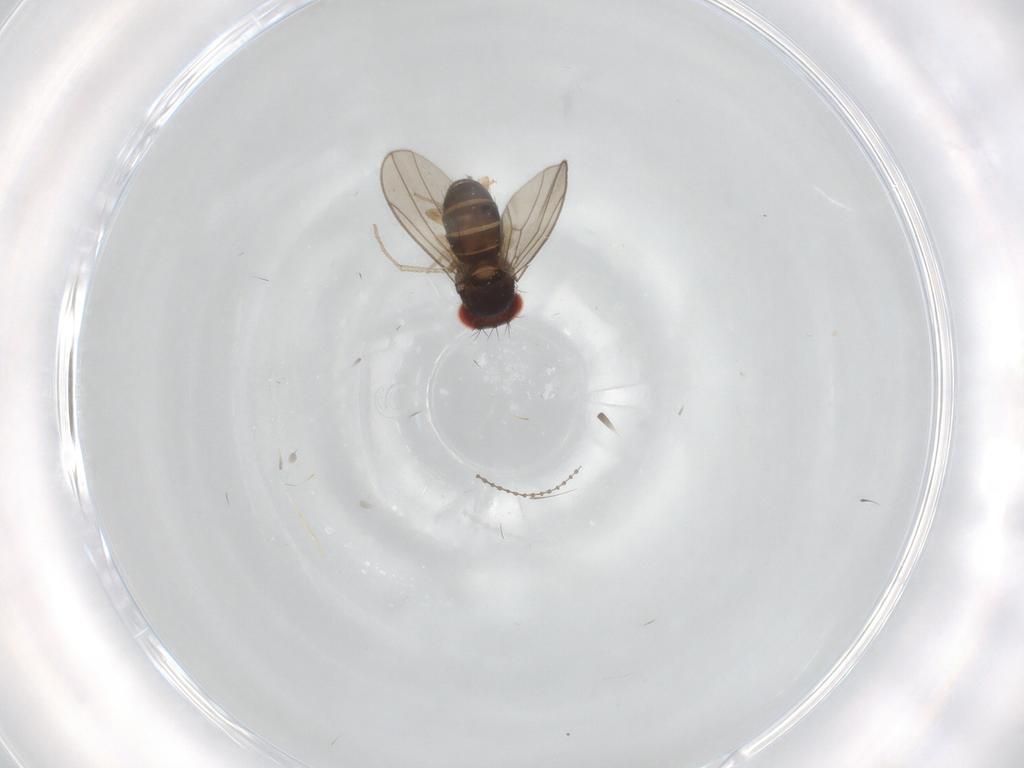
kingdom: Animalia
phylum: Arthropoda
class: Insecta
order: Diptera
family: Drosophilidae
